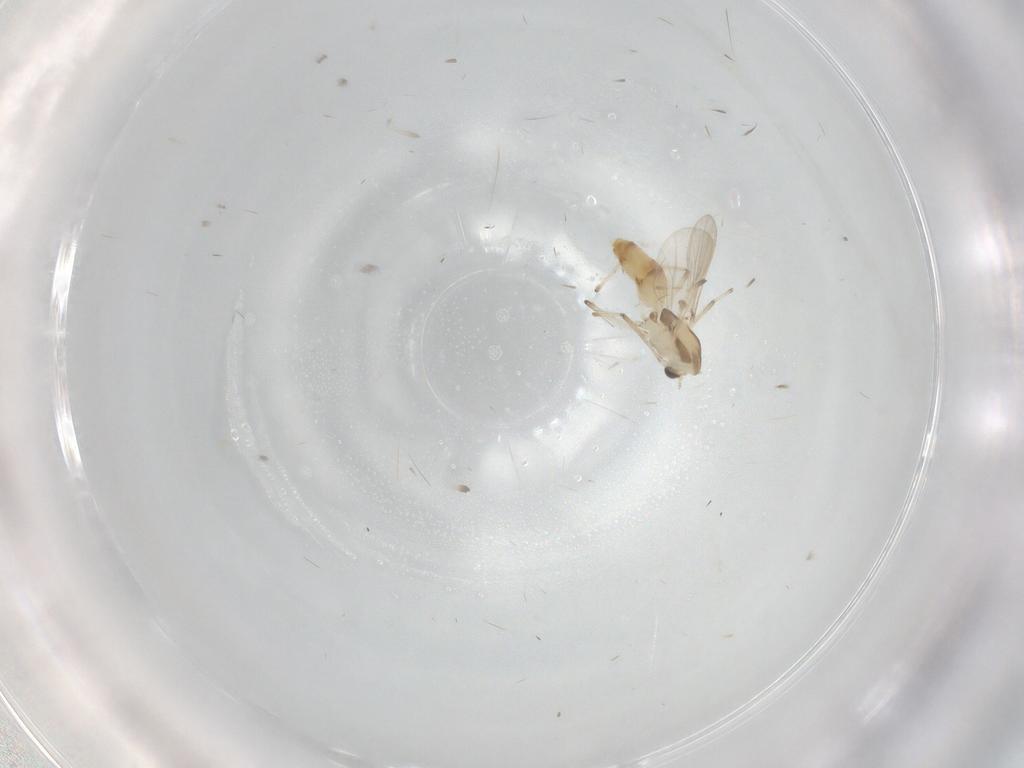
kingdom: Animalia
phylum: Arthropoda
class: Insecta
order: Diptera
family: Chironomidae
